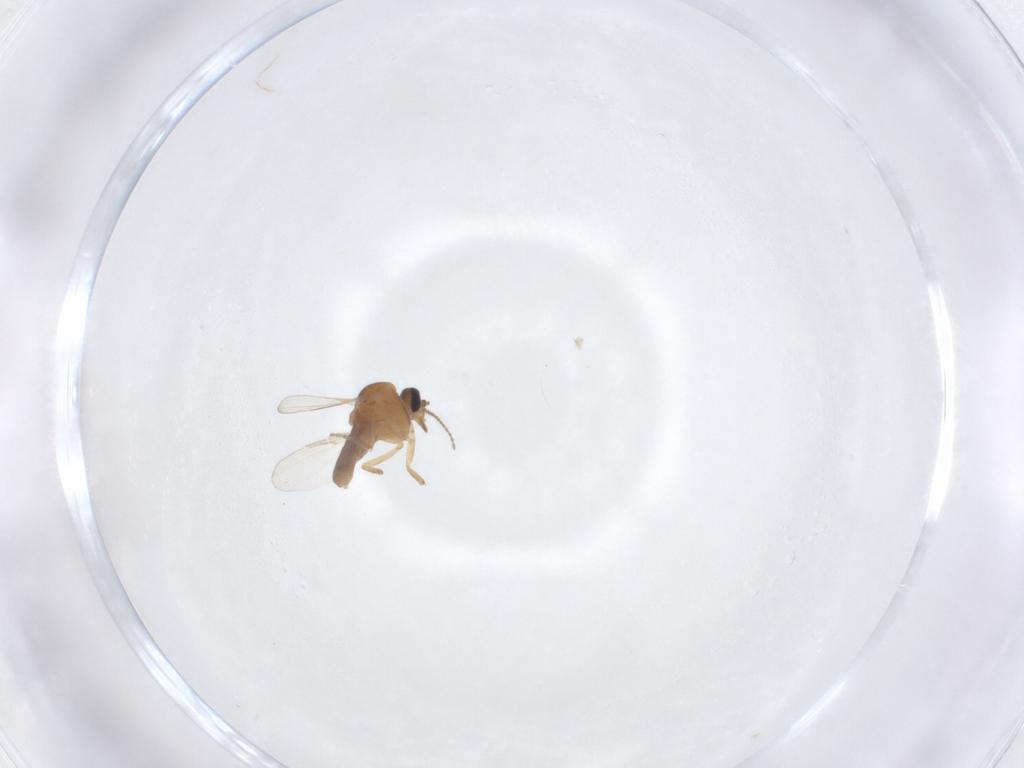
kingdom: Animalia
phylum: Arthropoda
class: Insecta
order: Diptera
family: Ceratopogonidae
